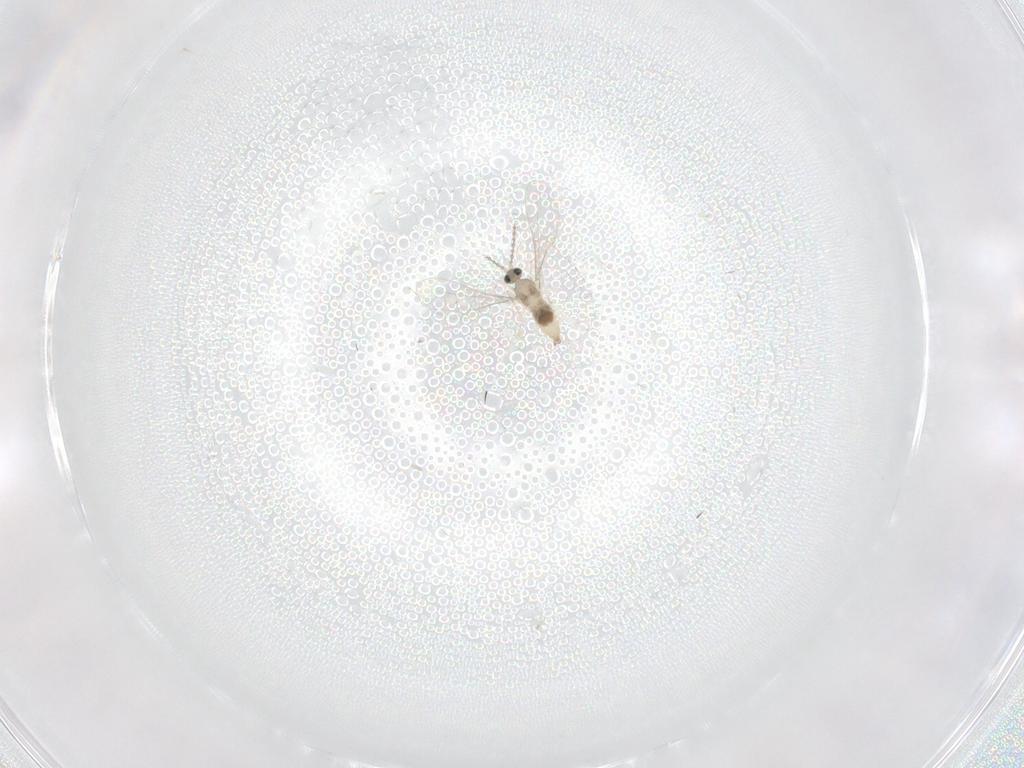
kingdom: Animalia
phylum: Arthropoda
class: Insecta
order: Diptera
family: Cecidomyiidae
